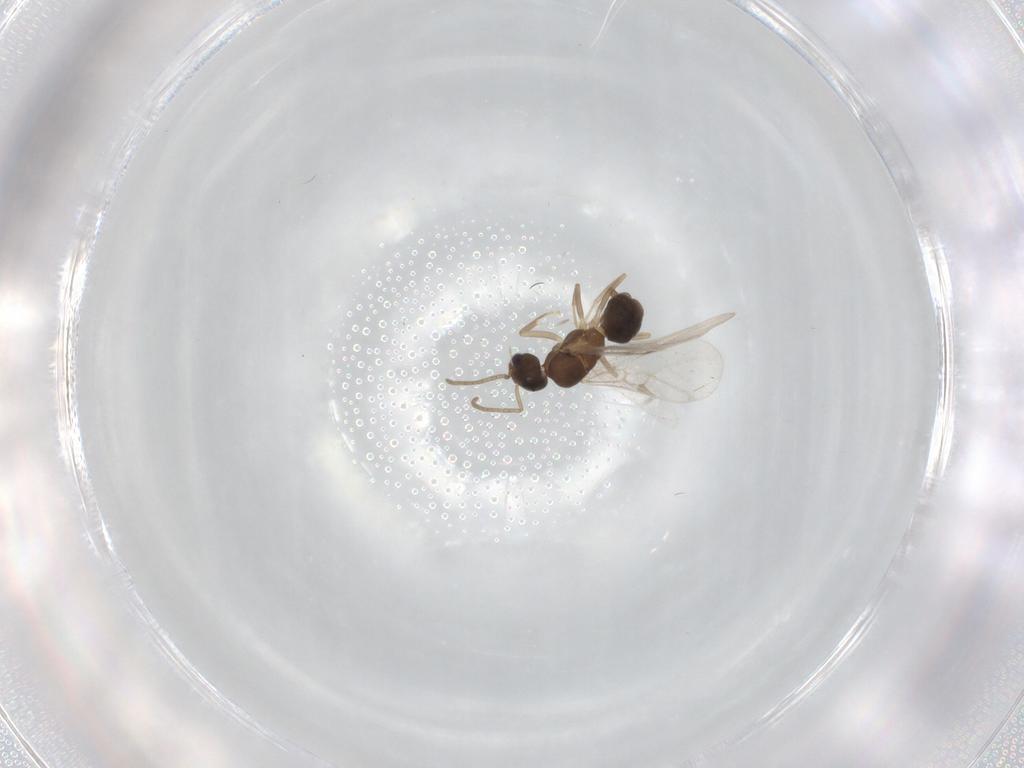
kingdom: Animalia
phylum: Arthropoda
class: Insecta
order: Hymenoptera
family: Formicidae
